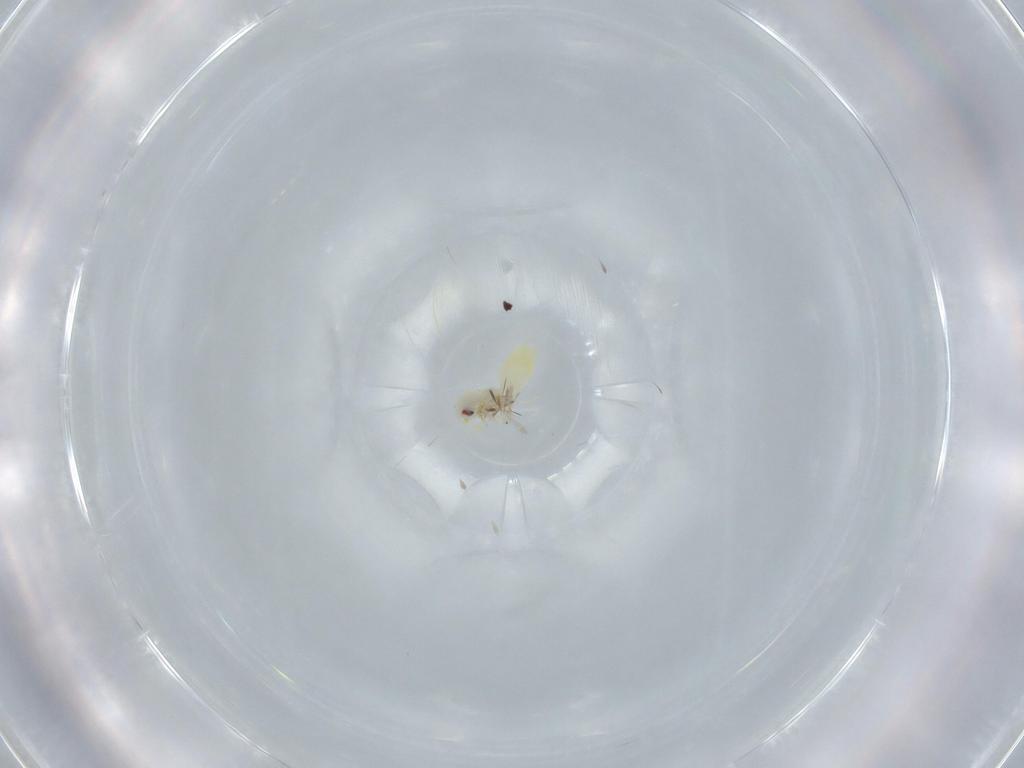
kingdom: Animalia
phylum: Arthropoda
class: Insecta
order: Hemiptera
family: Aleyrodidae
